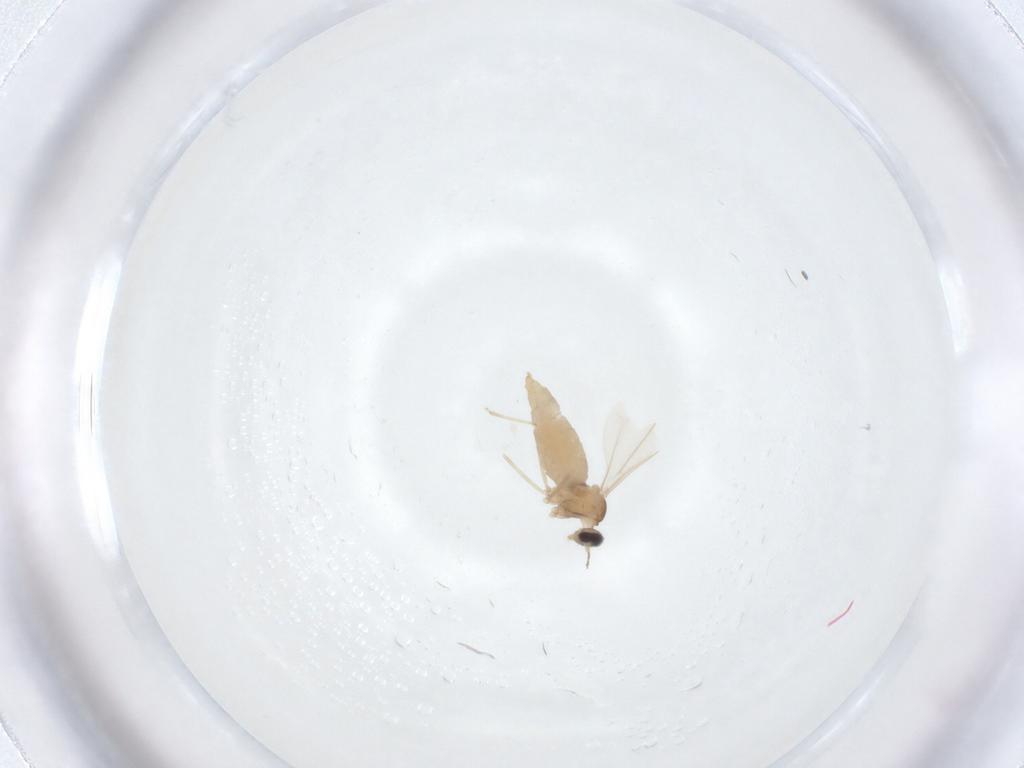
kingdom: Animalia
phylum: Arthropoda
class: Insecta
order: Diptera
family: Cecidomyiidae
